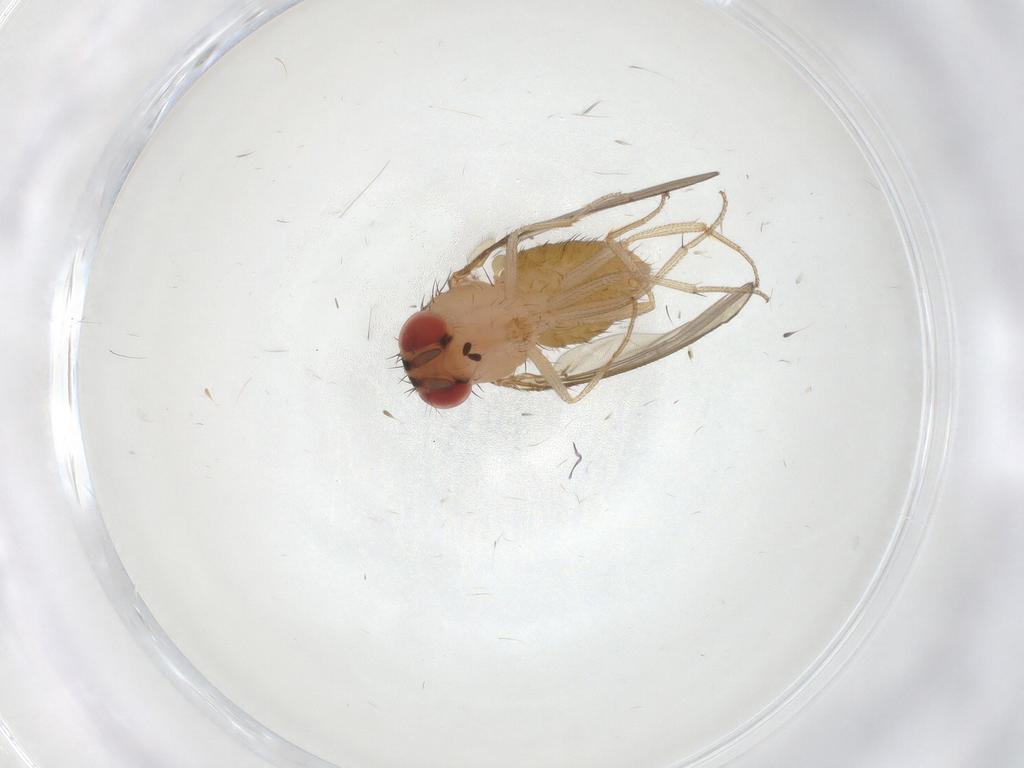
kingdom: Animalia
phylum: Arthropoda
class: Insecta
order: Diptera
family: Drosophilidae
